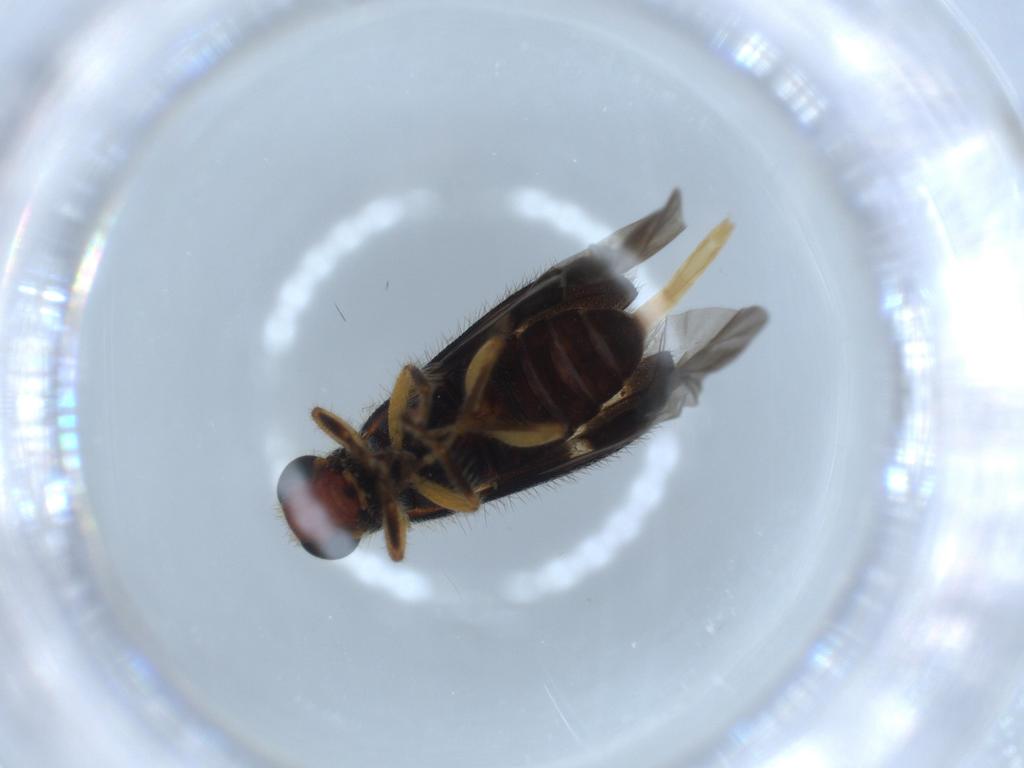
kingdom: Animalia
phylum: Arthropoda
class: Insecta
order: Coleoptera
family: Cleridae
